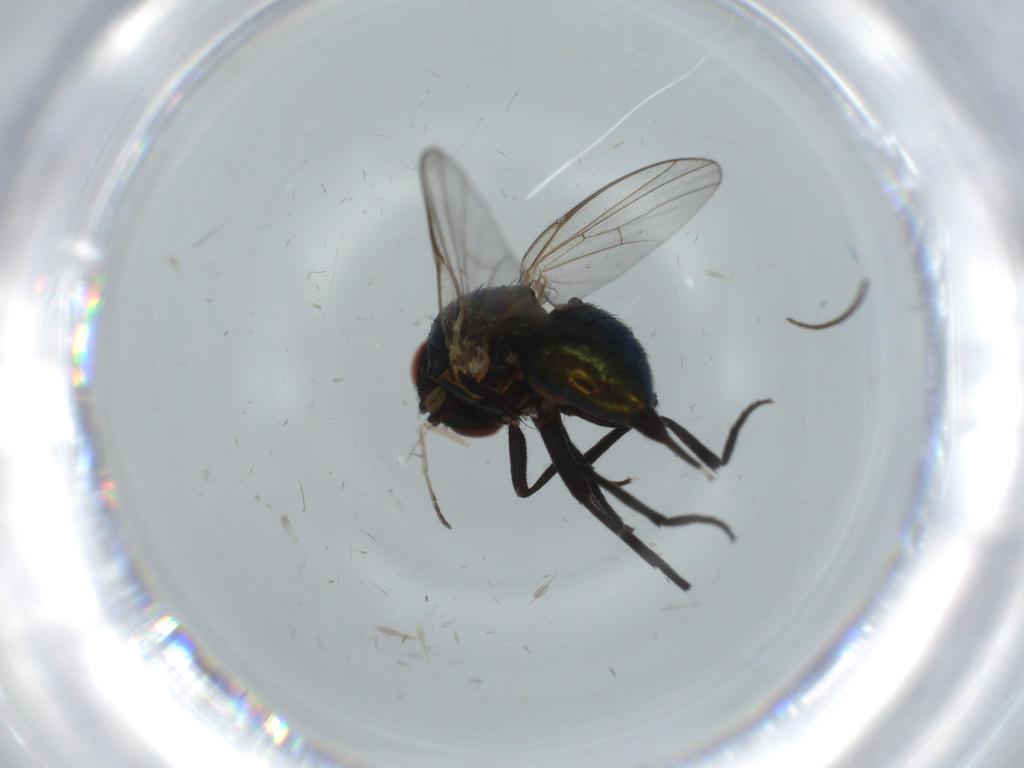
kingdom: Animalia
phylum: Arthropoda
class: Insecta
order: Diptera
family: Sciaridae
